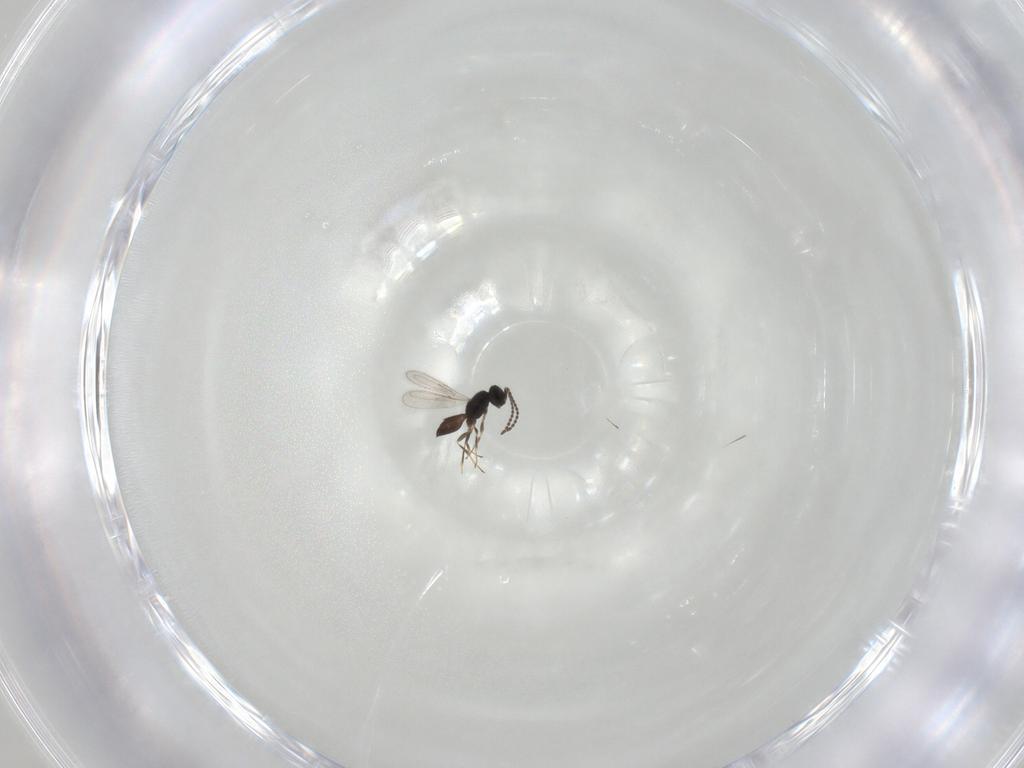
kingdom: Animalia
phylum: Arthropoda
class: Insecta
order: Hymenoptera
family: Scelionidae
